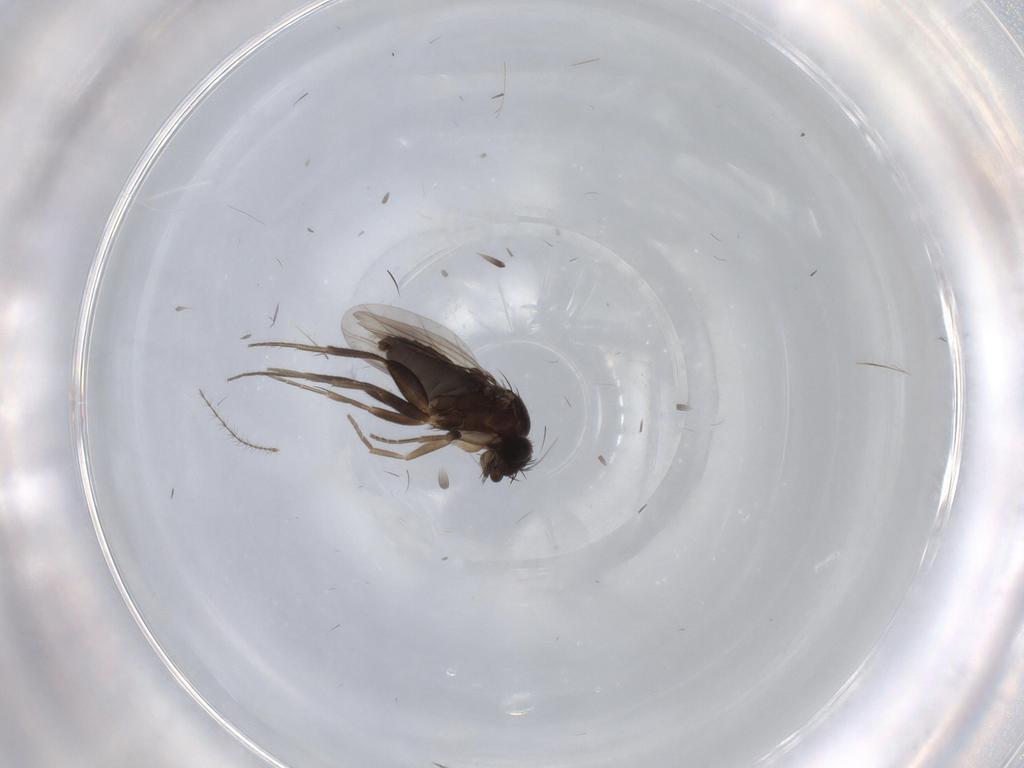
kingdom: Animalia
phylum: Arthropoda
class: Insecta
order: Diptera
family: Phoridae
